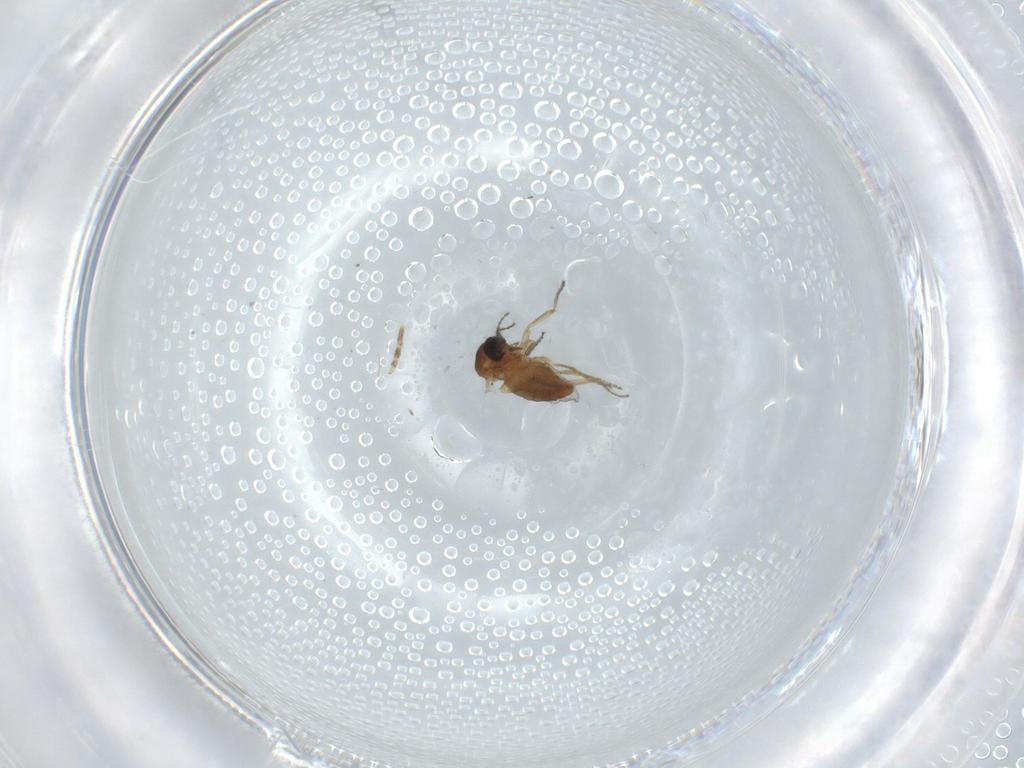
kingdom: Animalia
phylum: Arthropoda
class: Insecta
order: Diptera
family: Ceratopogonidae
